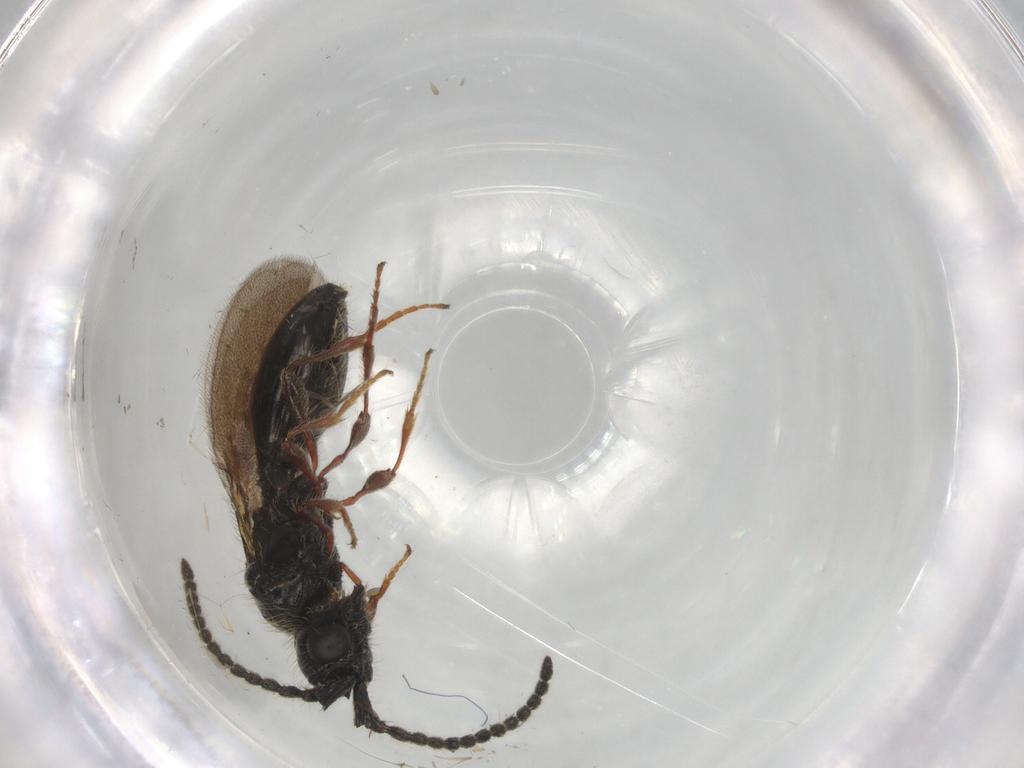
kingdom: Animalia
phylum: Arthropoda
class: Insecta
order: Hymenoptera
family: Diapriidae
